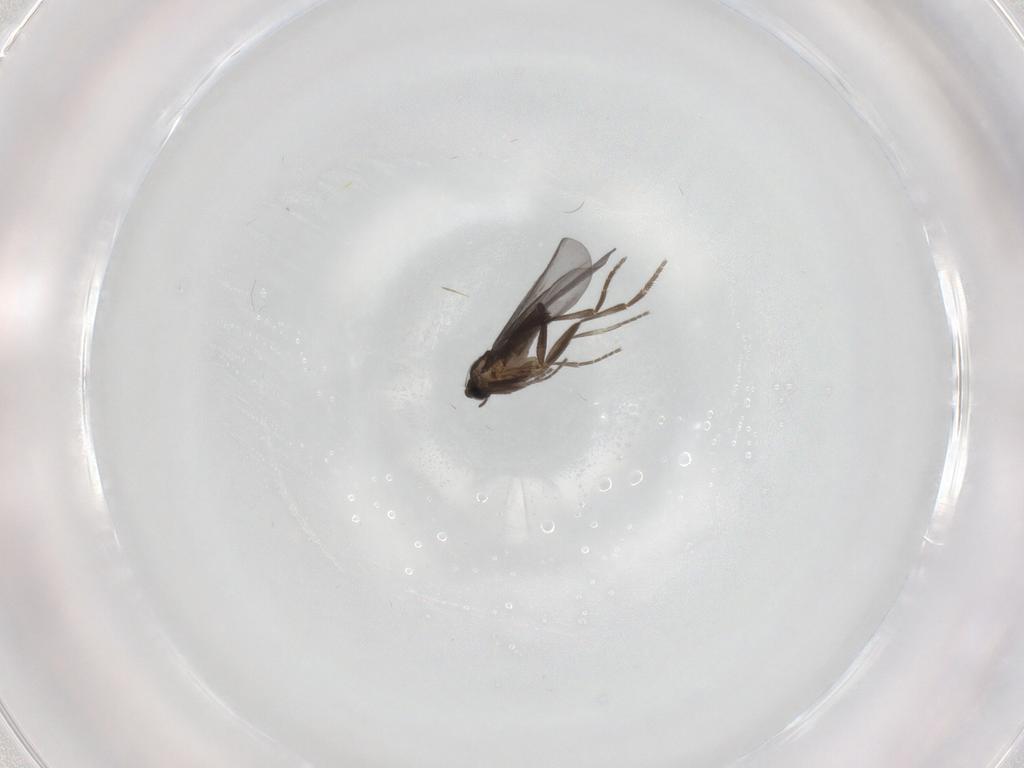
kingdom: Animalia
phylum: Arthropoda
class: Insecta
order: Diptera
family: Phoridae
